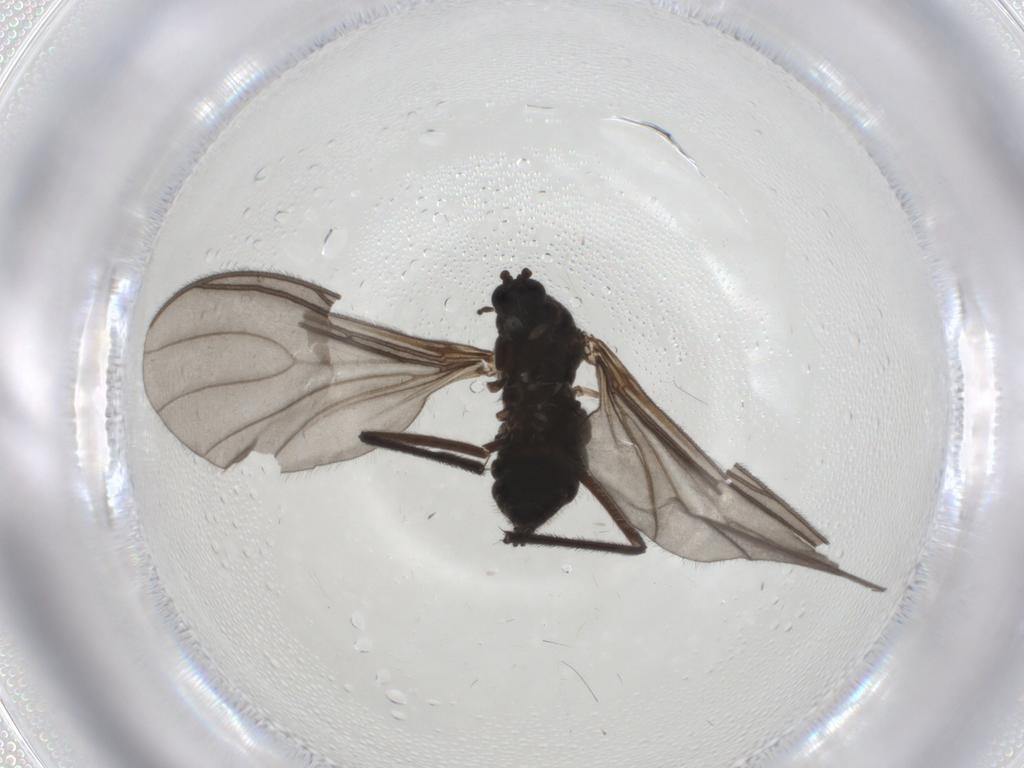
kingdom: Animalia
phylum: Arthropoda
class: Insecta
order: Diptera
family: Sciaridae
